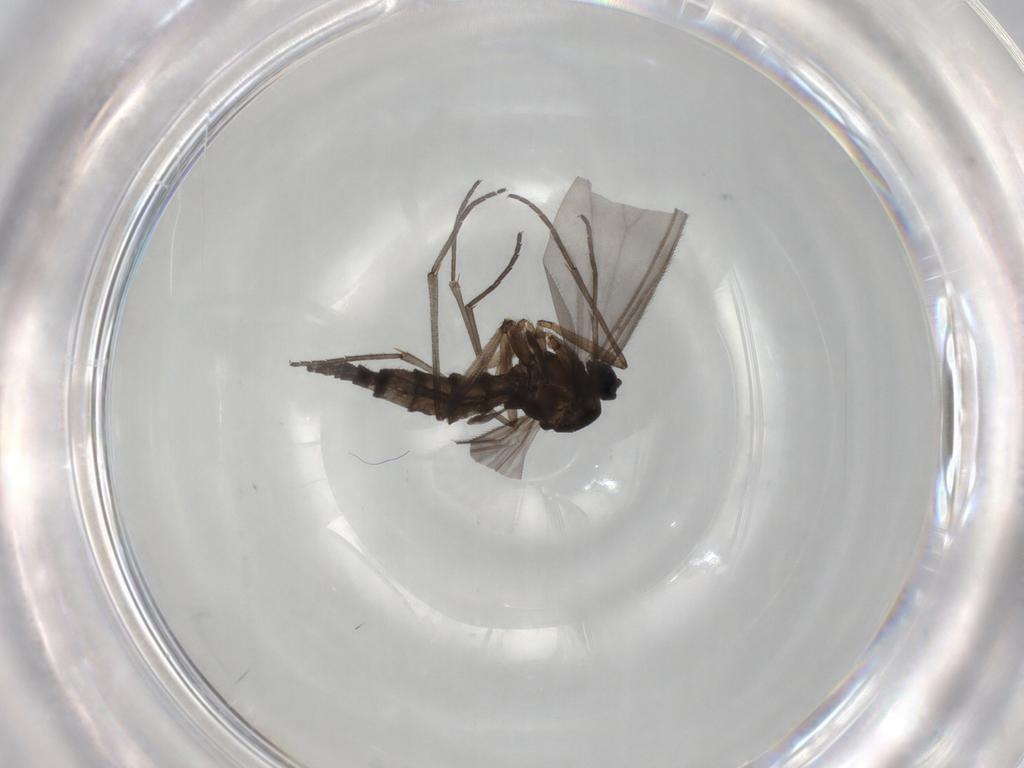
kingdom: Animalia
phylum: Arthropoda
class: Insecta
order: Diptera
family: Sciaridae
